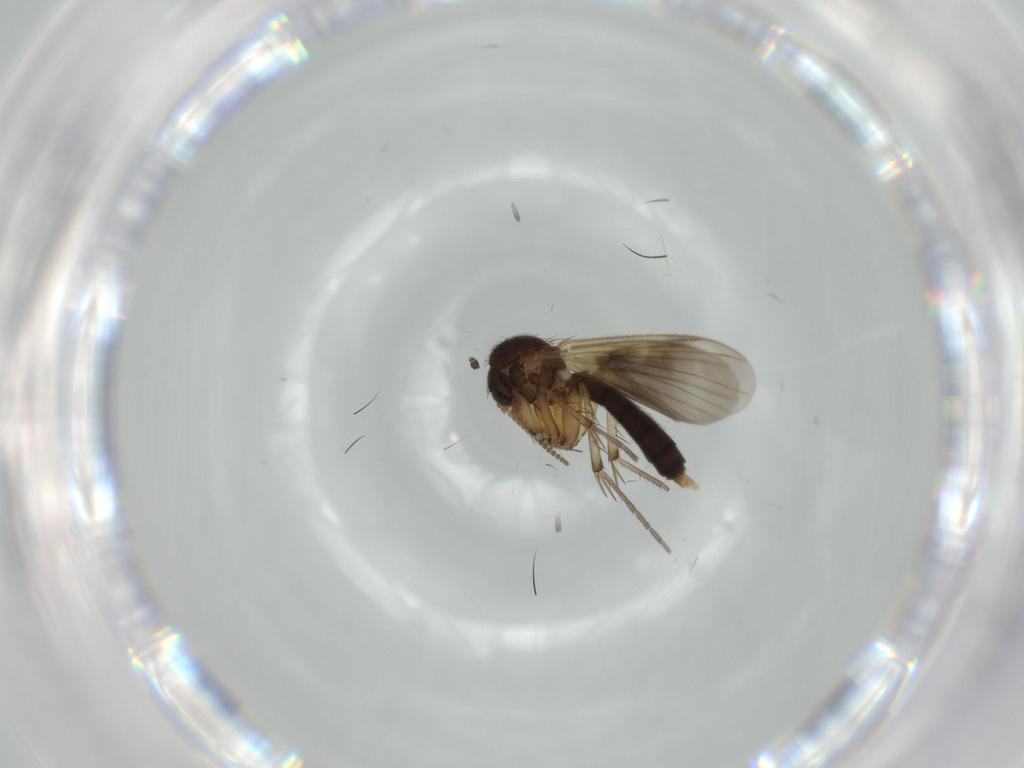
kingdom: Animalia
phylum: Arthropoda
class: Insecta
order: Diptera
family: Chironomidae
